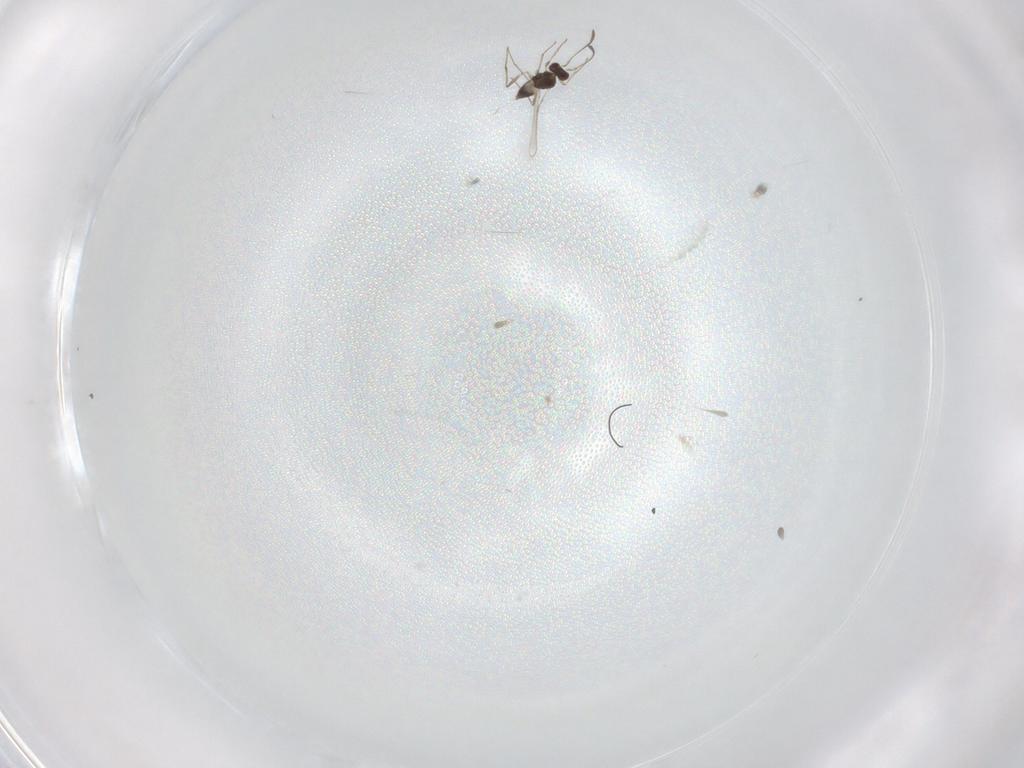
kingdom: Animalia
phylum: Arthropoda
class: Insecta
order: Hymenoptera
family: Mymaridae
